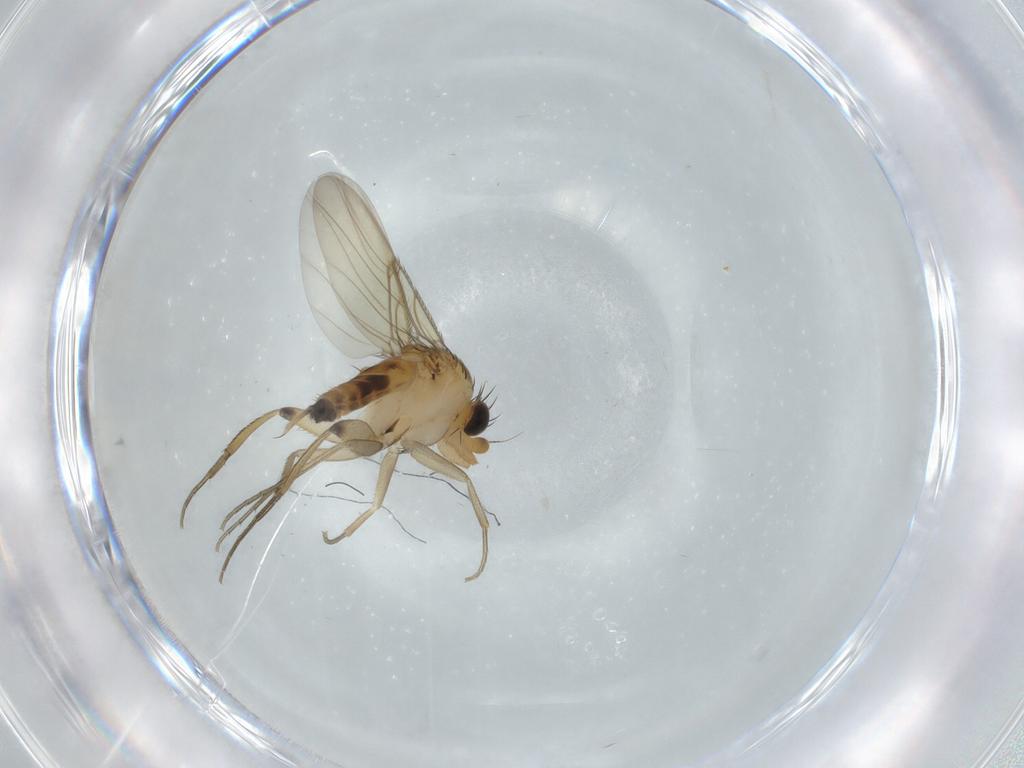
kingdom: Animalia
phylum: Arthropoda
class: Insecta
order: Diptera
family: Phoridae
